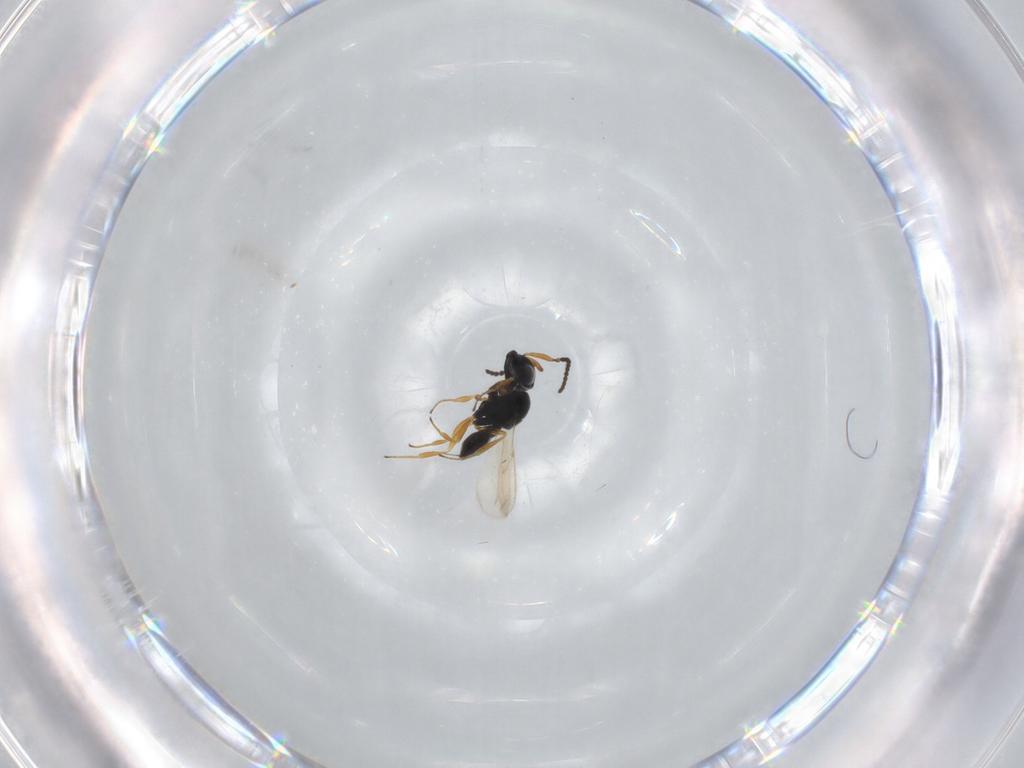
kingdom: Animalia
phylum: Arthropoda
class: Insecta
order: Hymenoptera
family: Scelionidae
